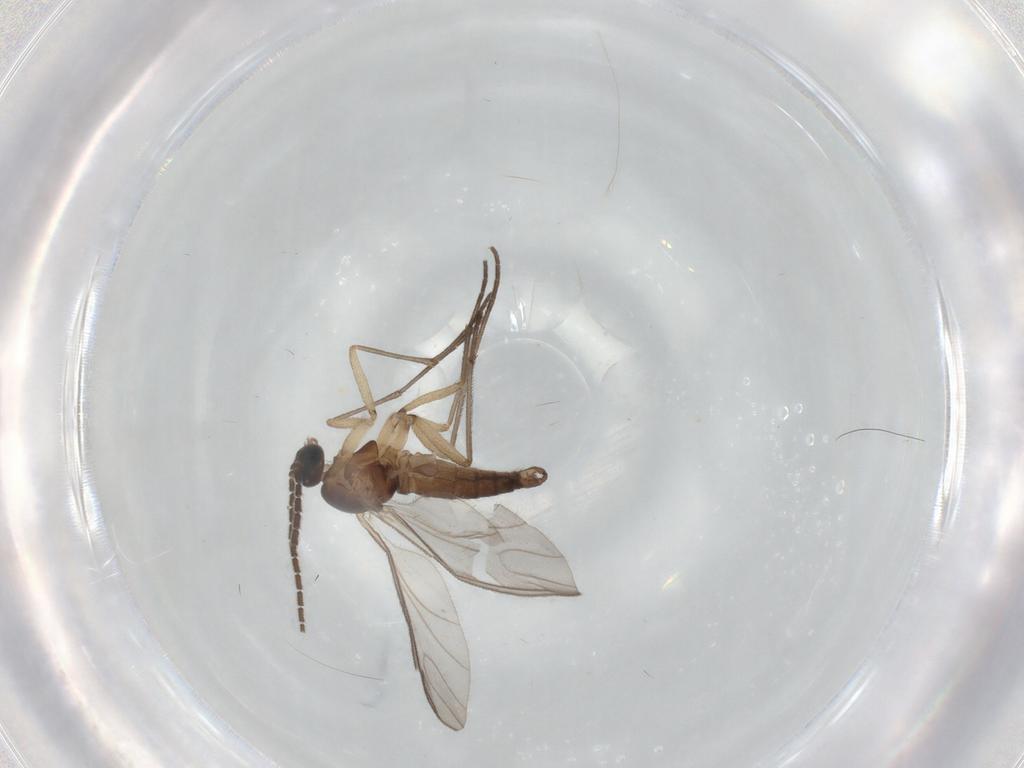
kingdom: Animalia
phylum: Arthropoda
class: Insecta
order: Diptera
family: Sciaridae
